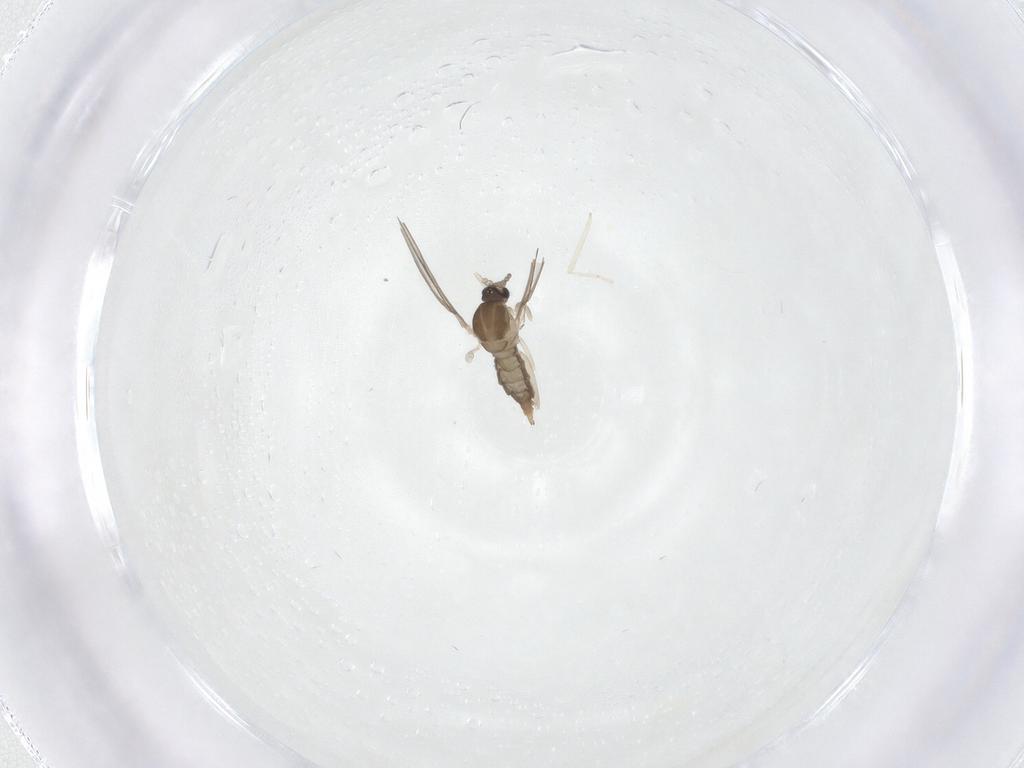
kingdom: Animalia
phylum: Arthropoda
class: Insecta
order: Diptera
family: Cecidomyiidae
